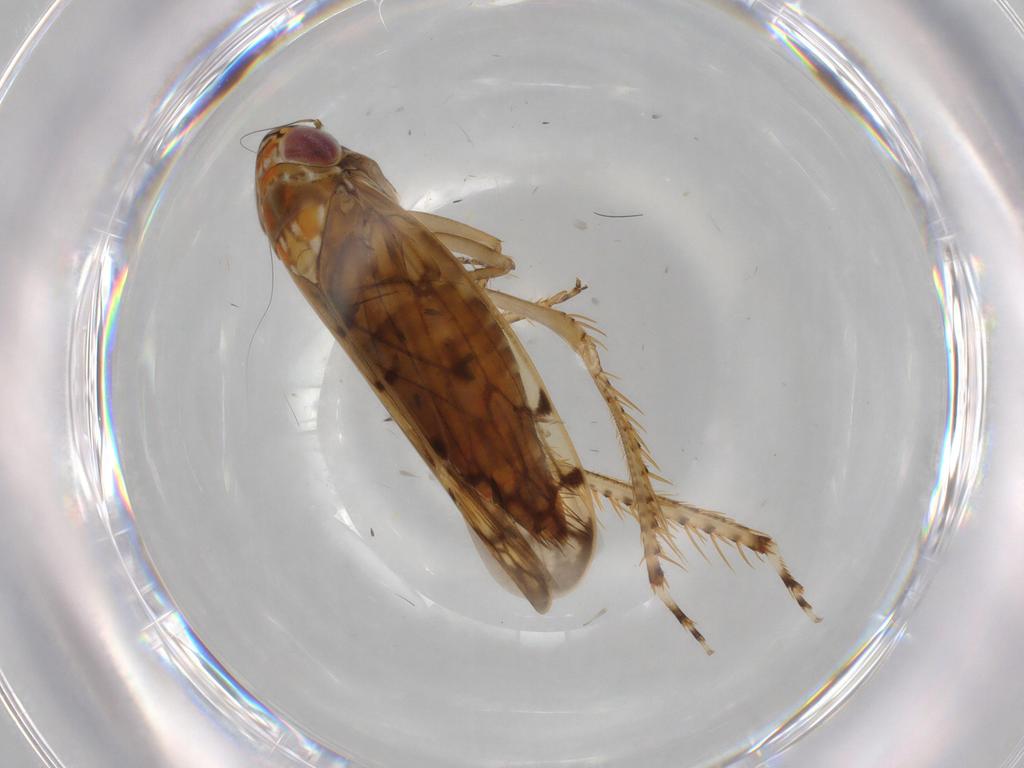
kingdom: Animalia
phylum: Arthropoda
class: Insecta
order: Hemiptera
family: Cicadellidae
